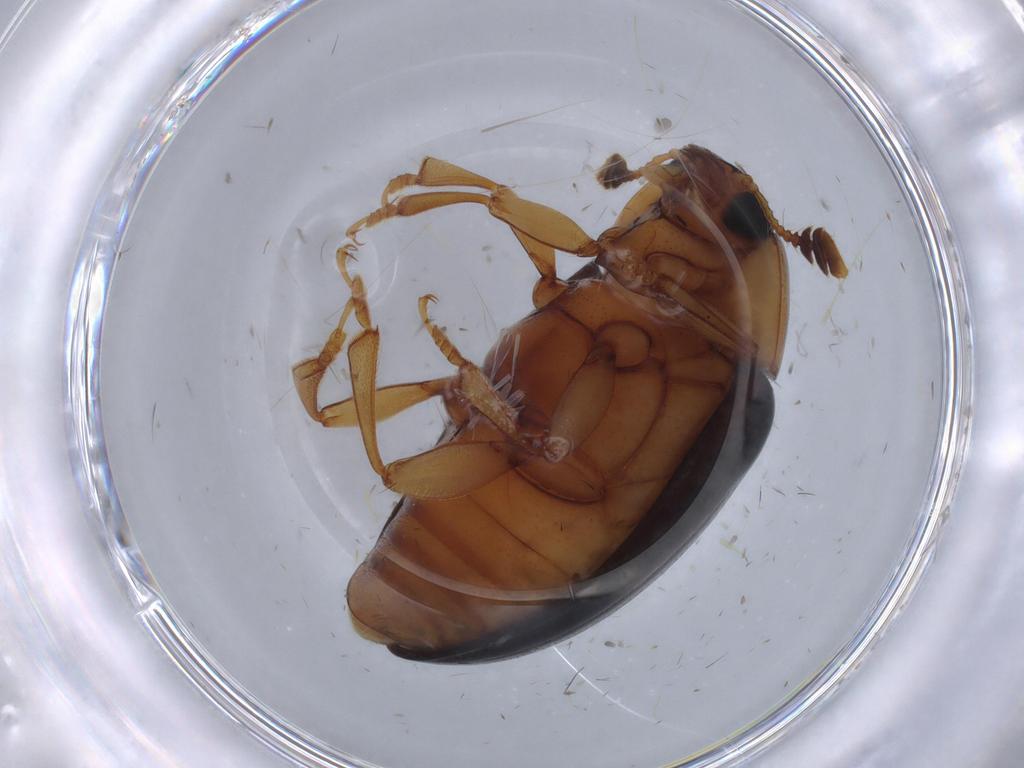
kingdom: Animalia
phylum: Arthropoda
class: Insecta
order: Coleoptera
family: Erotylidae
